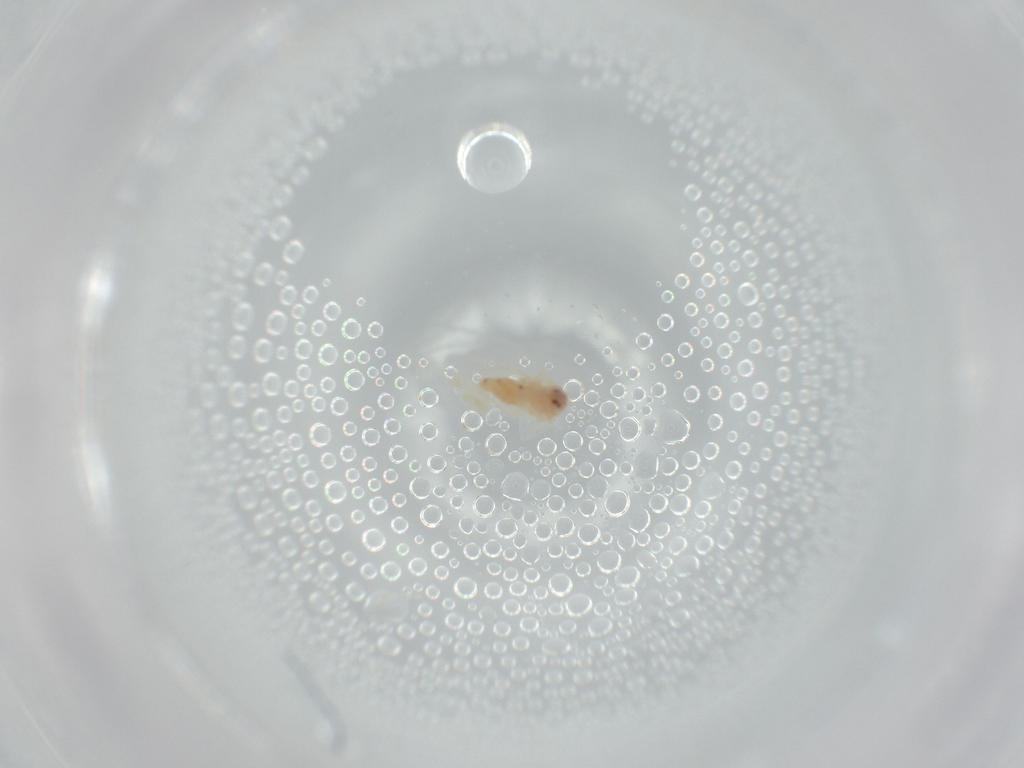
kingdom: Animalia
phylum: Arthropoda
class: Insecta
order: Hemiptera
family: Aleyrodidae
